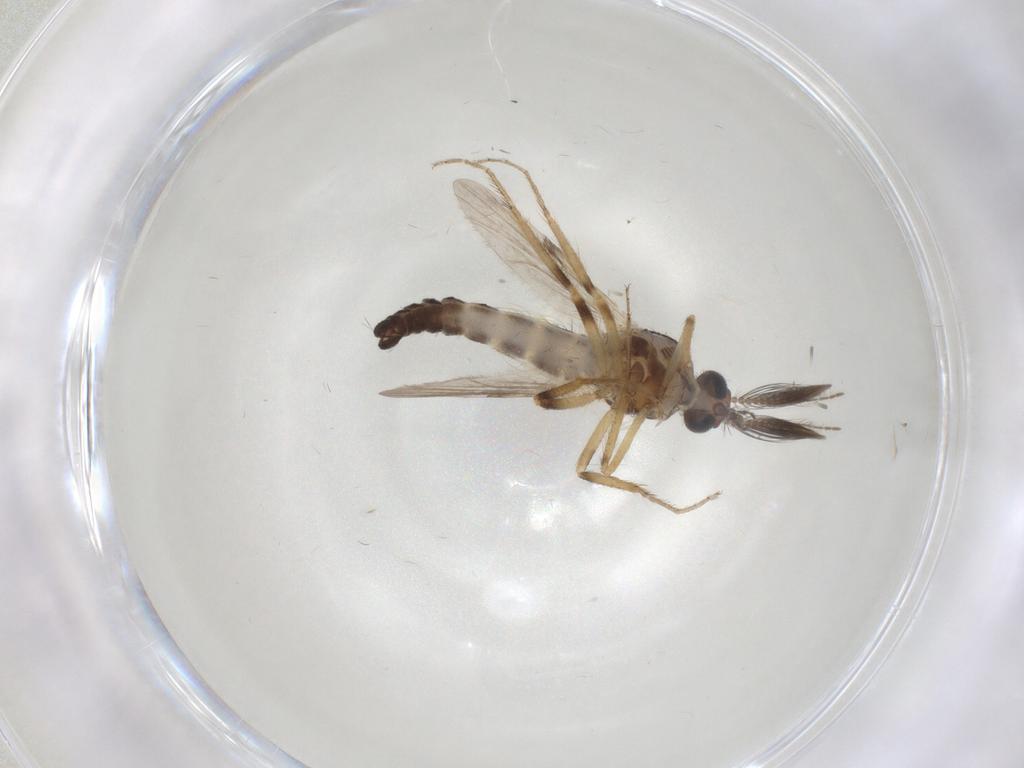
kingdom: Animalia
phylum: Arthropoda
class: Insecta
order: Diptera
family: Ceratopogonidae
